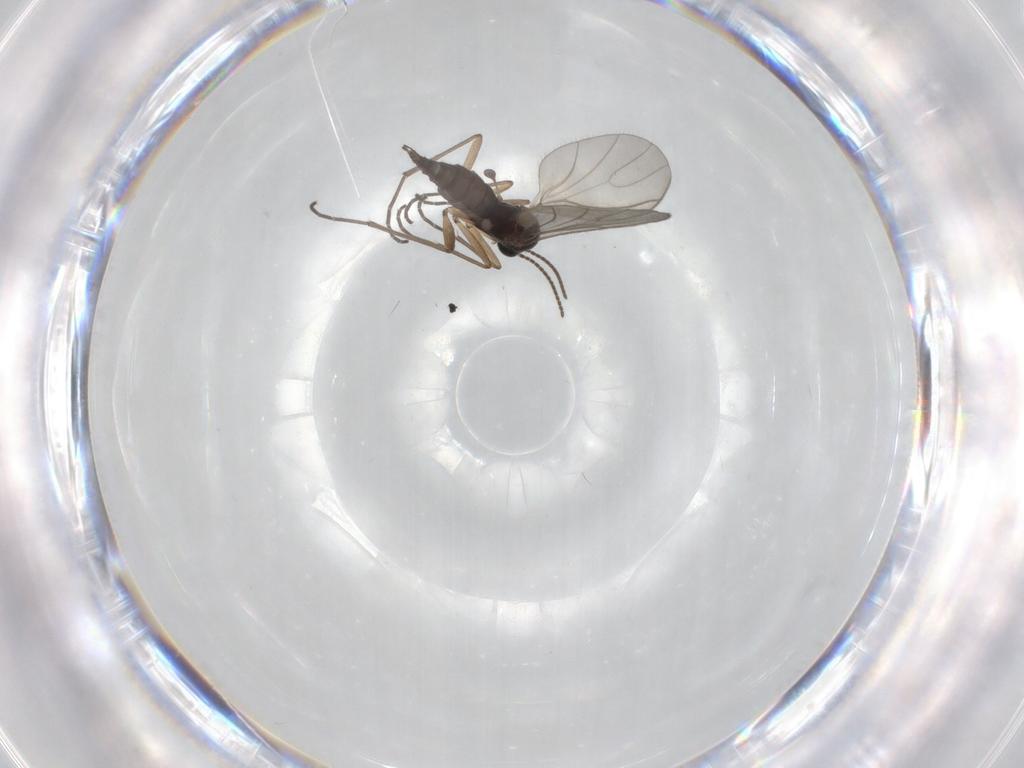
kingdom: Animalia
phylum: Arthropoda
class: Insecta
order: Diptera
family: Sciaridae
